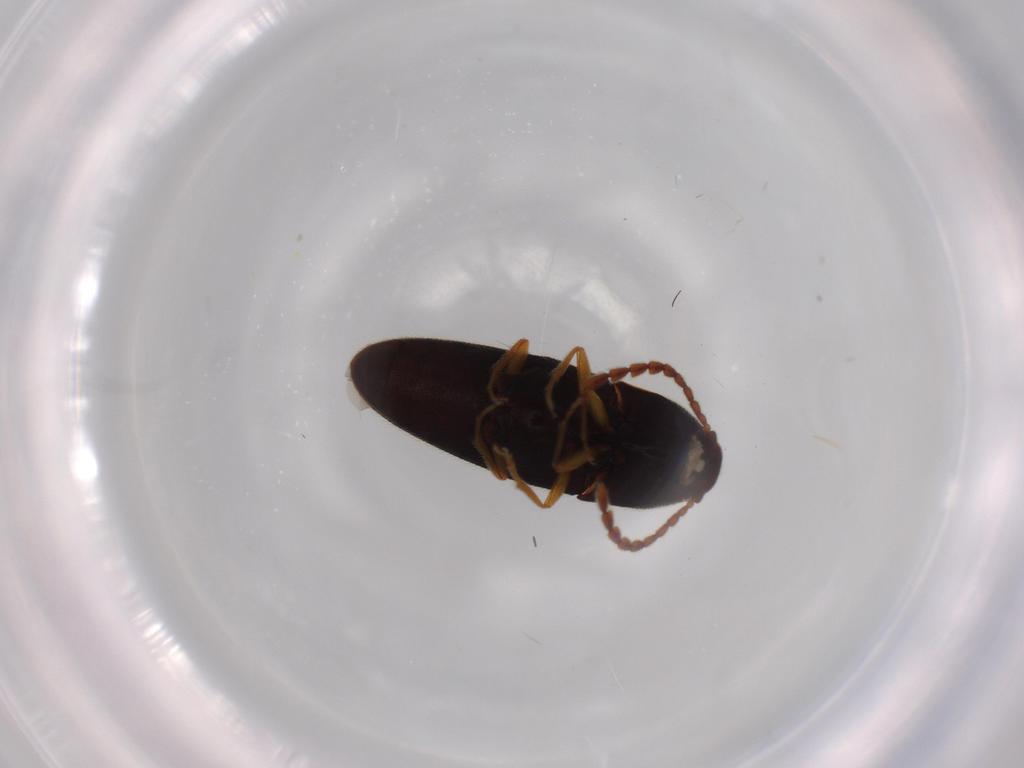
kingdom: Animalia
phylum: Arthropoda
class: Insecta
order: Coleoptera
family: Elateridae
